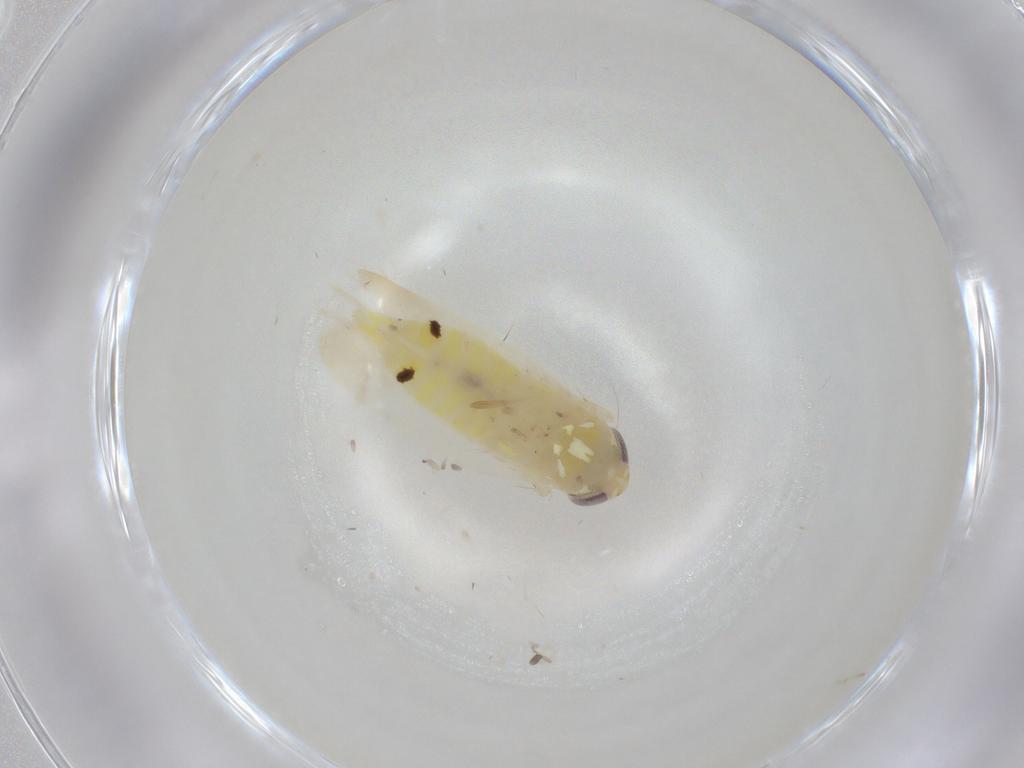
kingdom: Animalia
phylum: Arthropoda
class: Insecta
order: Hemiptera
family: Cicadellidae
